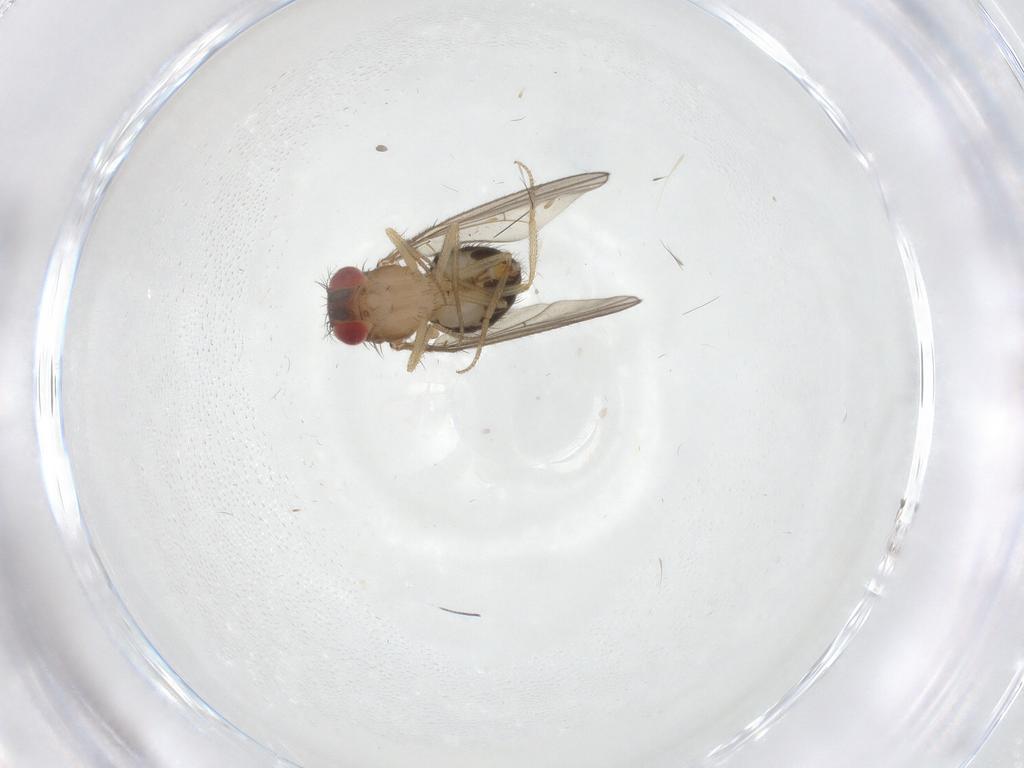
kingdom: Animalia
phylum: Arthropoda
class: Insecta
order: Diptera
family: Drosophilidae
